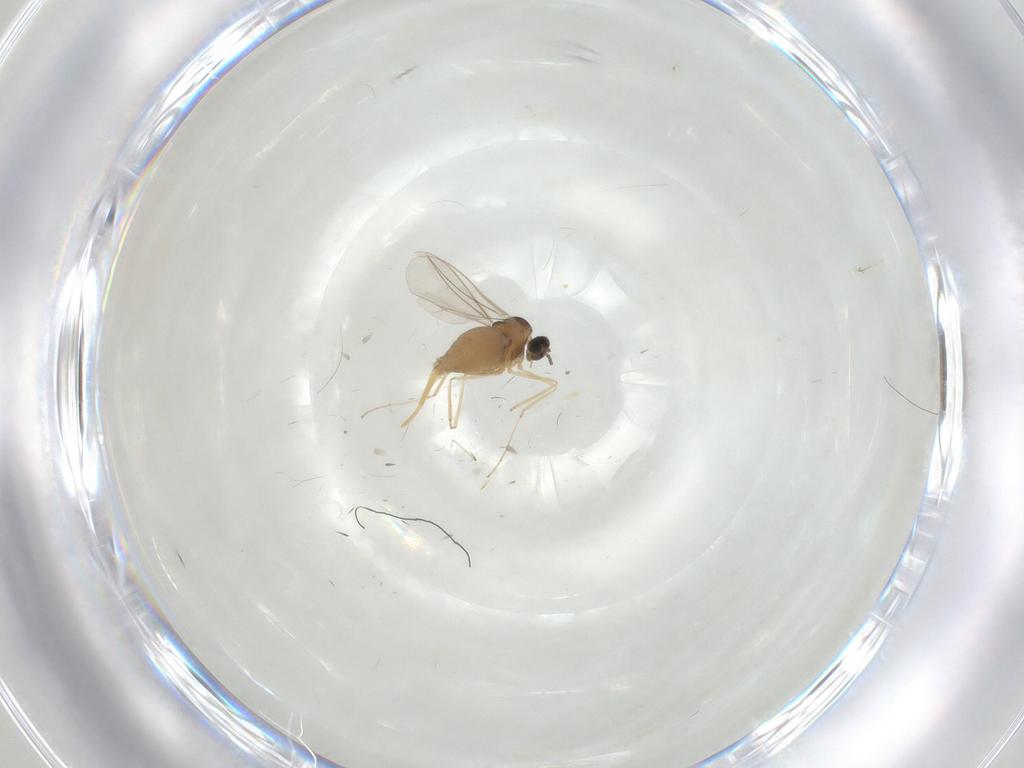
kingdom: Animalia
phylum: Arthropoda
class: Insecta
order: Diptera
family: Cecidomyiidae
